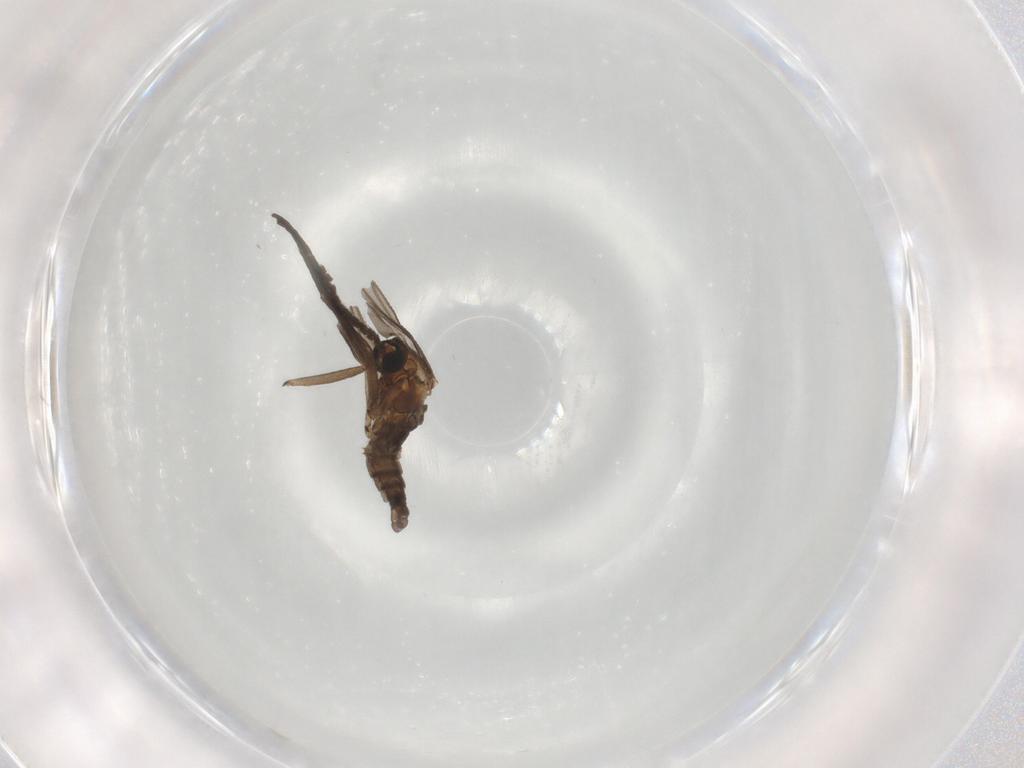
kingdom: Animalia
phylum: Arthropoda
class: Insecta
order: Diptera
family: Sciaridae
